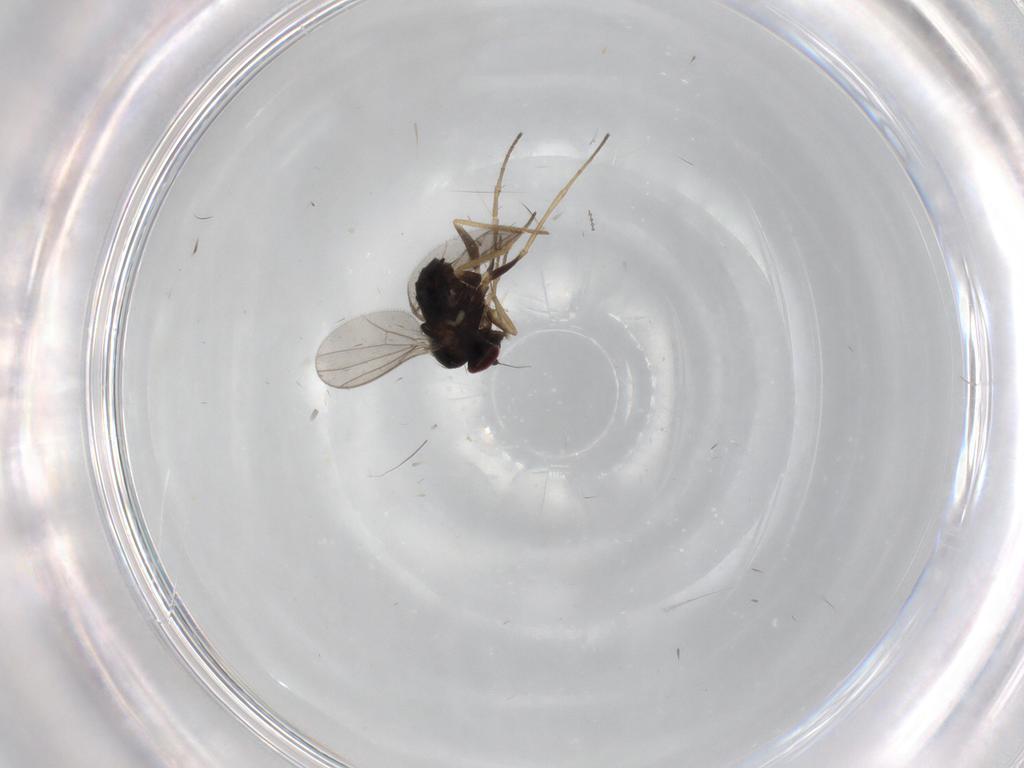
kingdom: Animalia
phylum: Arthropoda
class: Insecta
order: Diptera
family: Dolichopodidae
